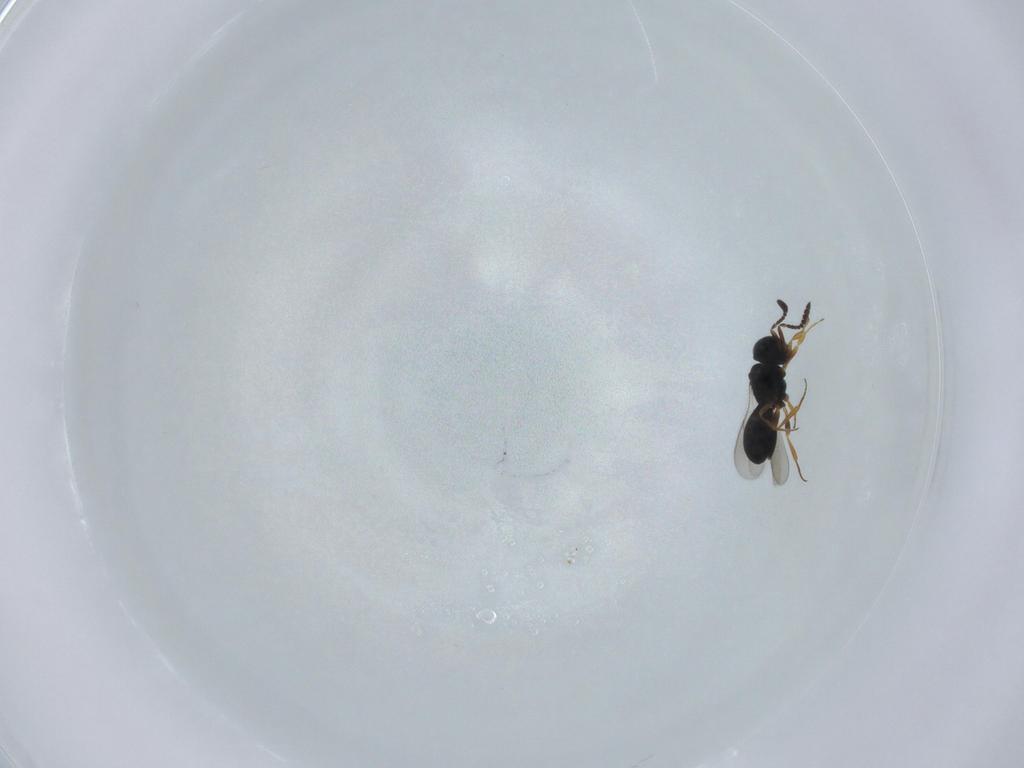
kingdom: Animalia
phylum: Arthropoda
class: Insecta
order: Hymenoptera
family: Scelionidae
